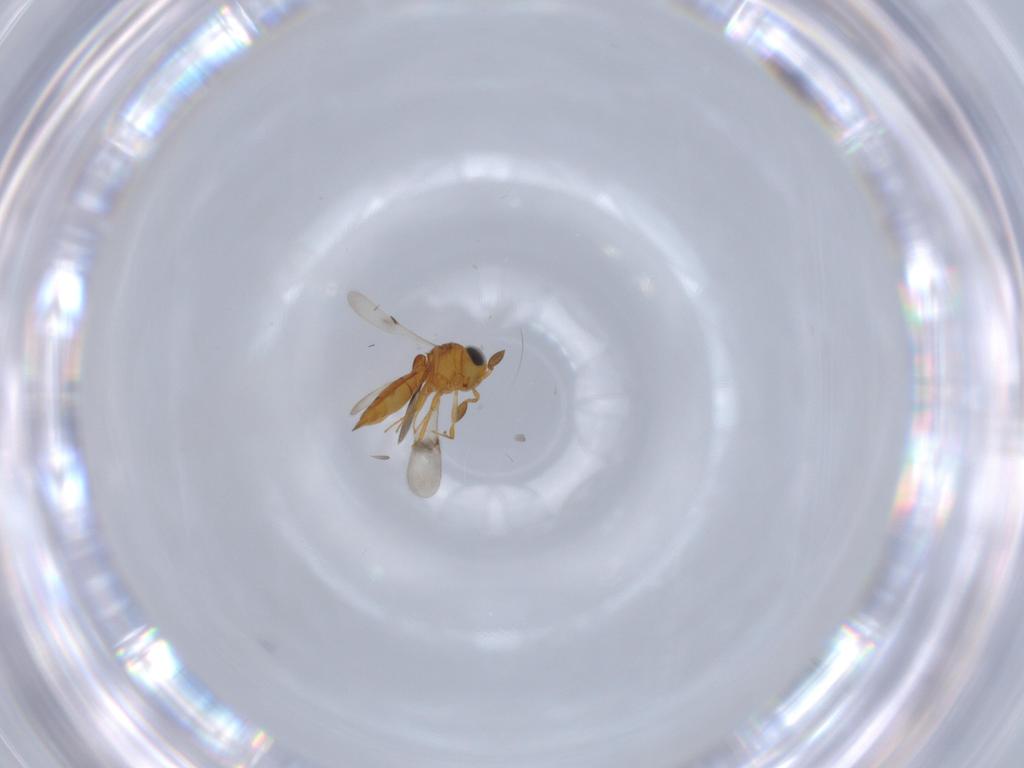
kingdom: Animalia
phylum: Arthropoda
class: Insecta
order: Hymenoptera
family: Scelionidae
